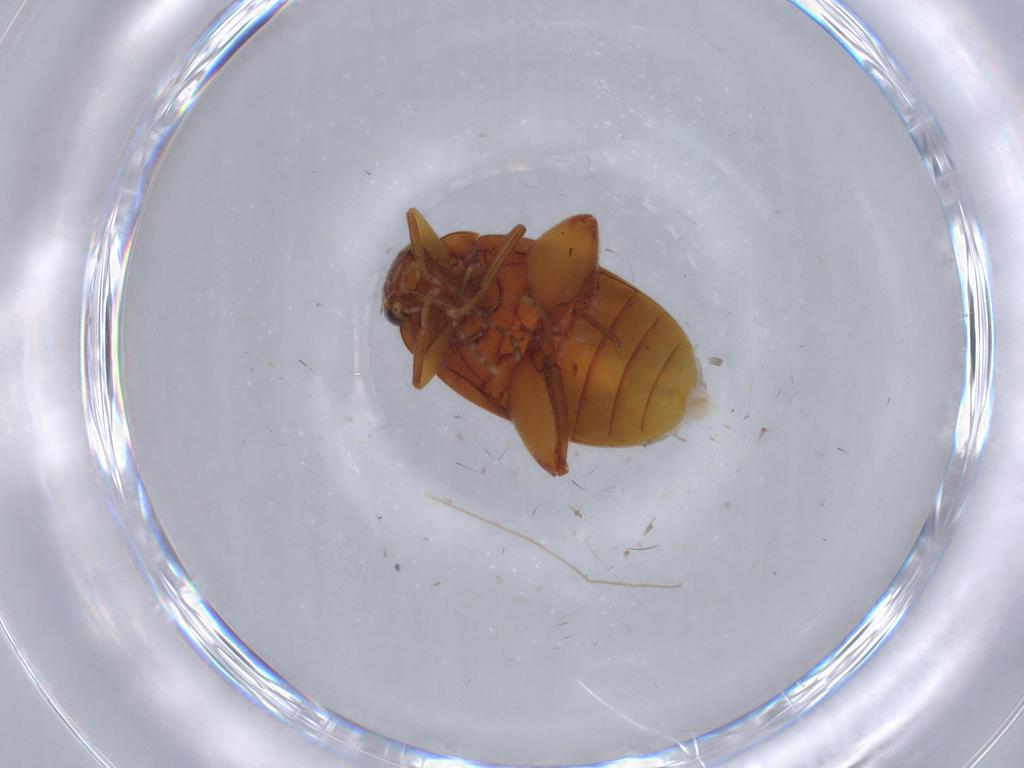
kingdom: Animalia
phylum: Arthropoda
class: Insecta
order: Coleoptera
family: Scirtidae
